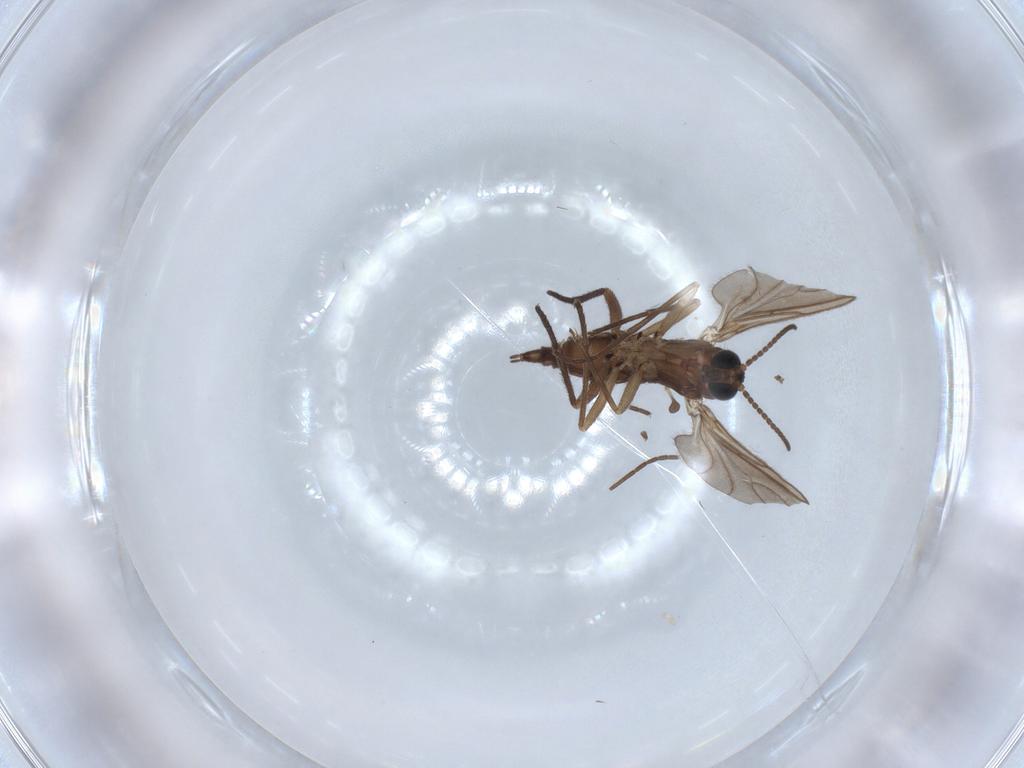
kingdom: Animalia
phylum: Arthropoda
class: Insecta
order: Diptera
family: Sciaridae
